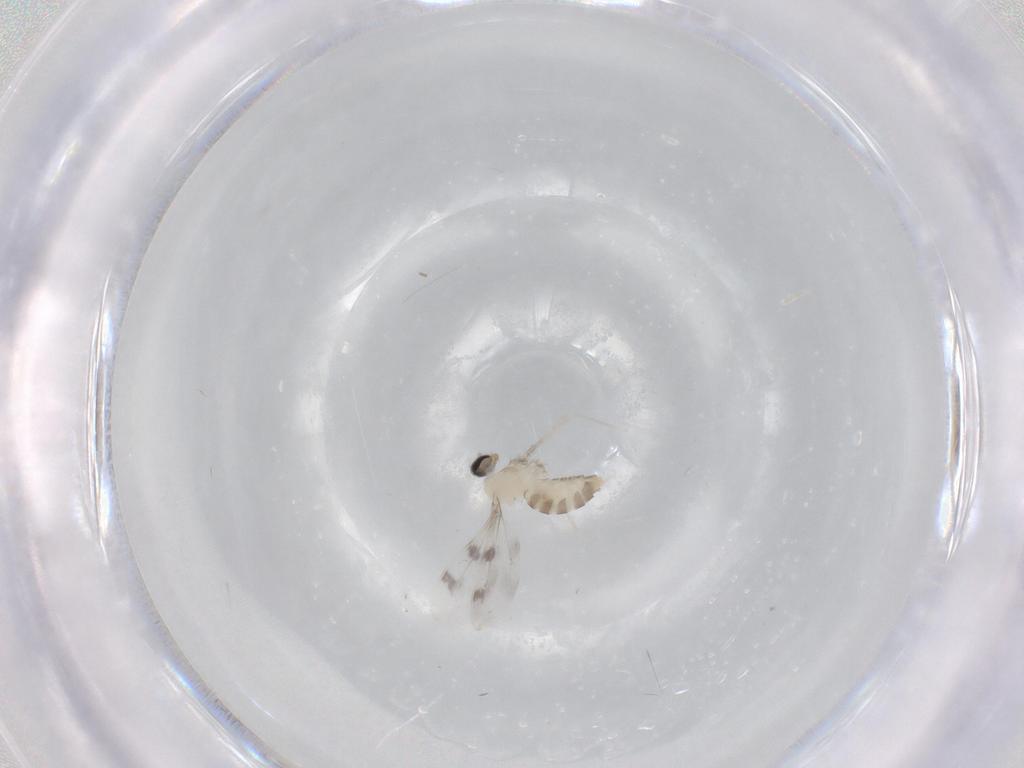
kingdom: Animalia
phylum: Arthropoda
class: Insecta
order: Diptera
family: Cecidomyiidae
